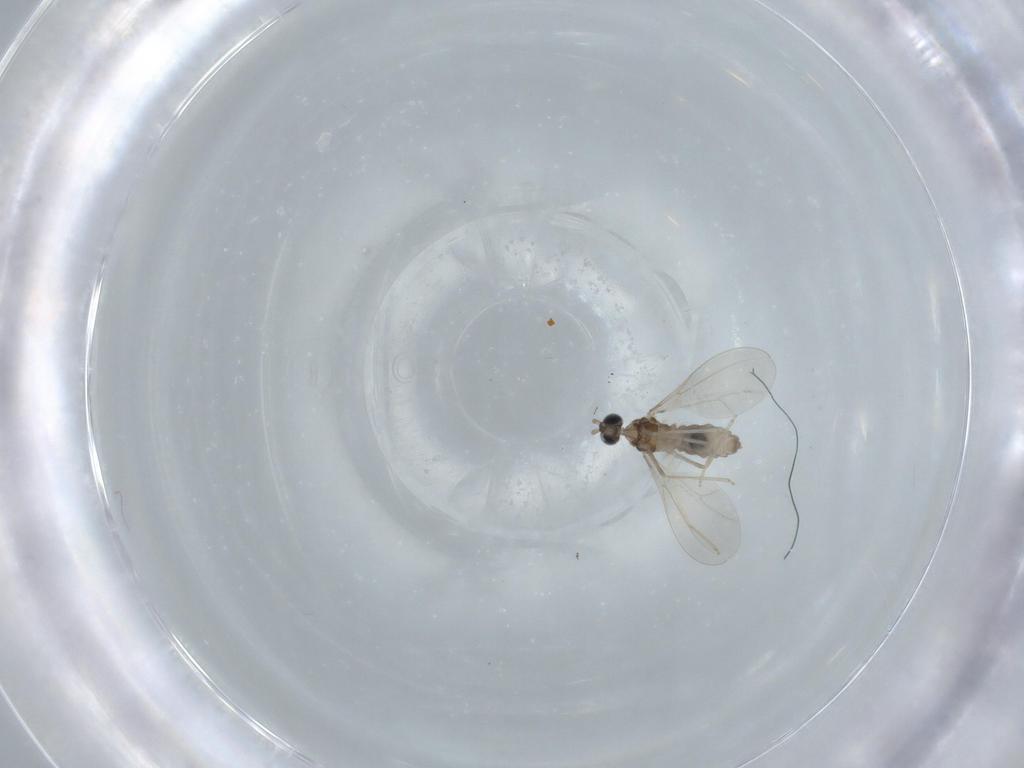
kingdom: Animalia
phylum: Arthropoda
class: Insecta
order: Diptera
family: Cecidomyiidae
